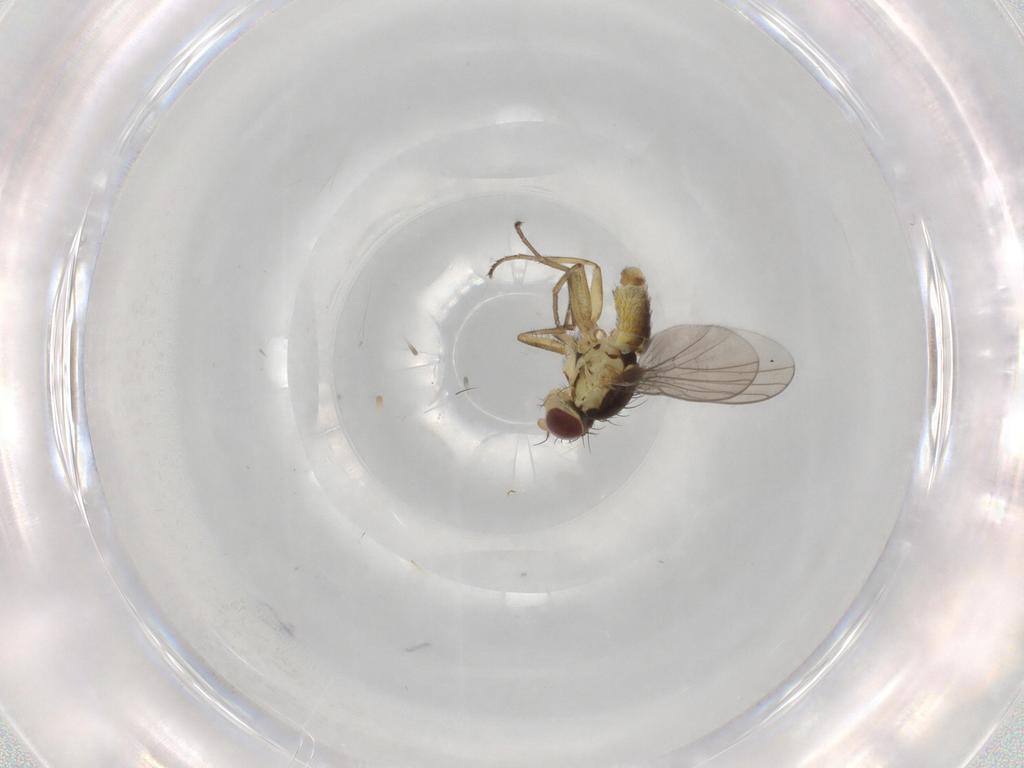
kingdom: Animalia
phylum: Arthropoda
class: Insecta
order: Diptera
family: Agromyzidae
